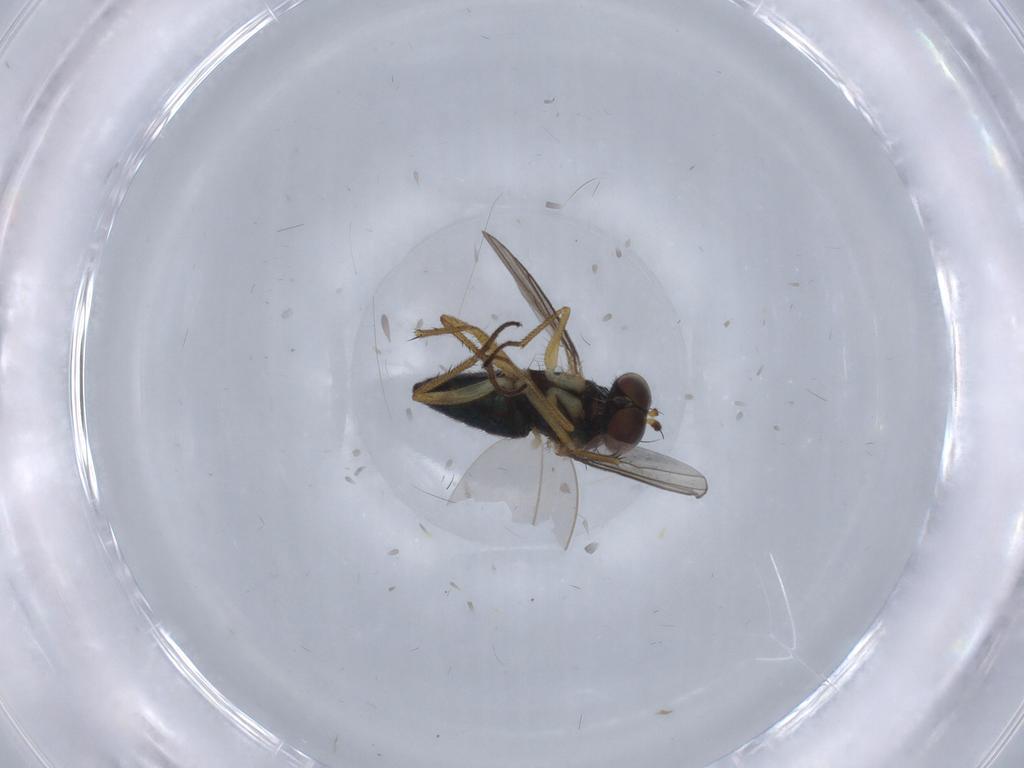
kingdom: Animalia
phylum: Arthropoda
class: Insecta
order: Diptera
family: Dolichopodidae
